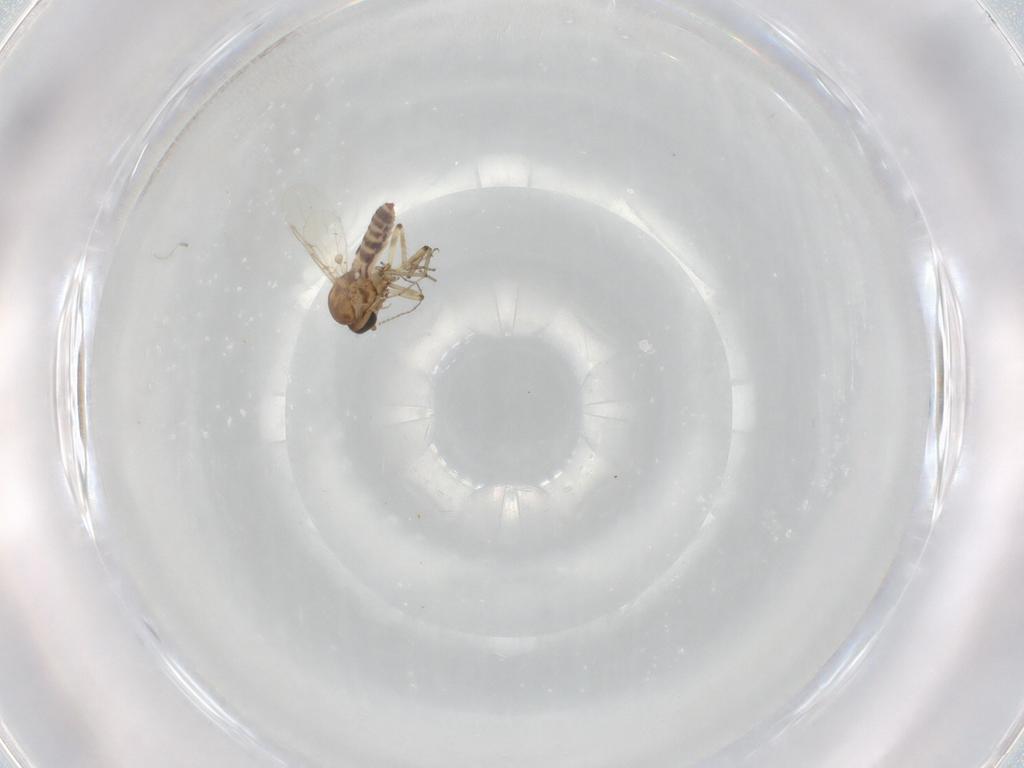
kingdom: Animalia
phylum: Arthropoda
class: Insecta
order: Diptera
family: Ceratopogonidae
